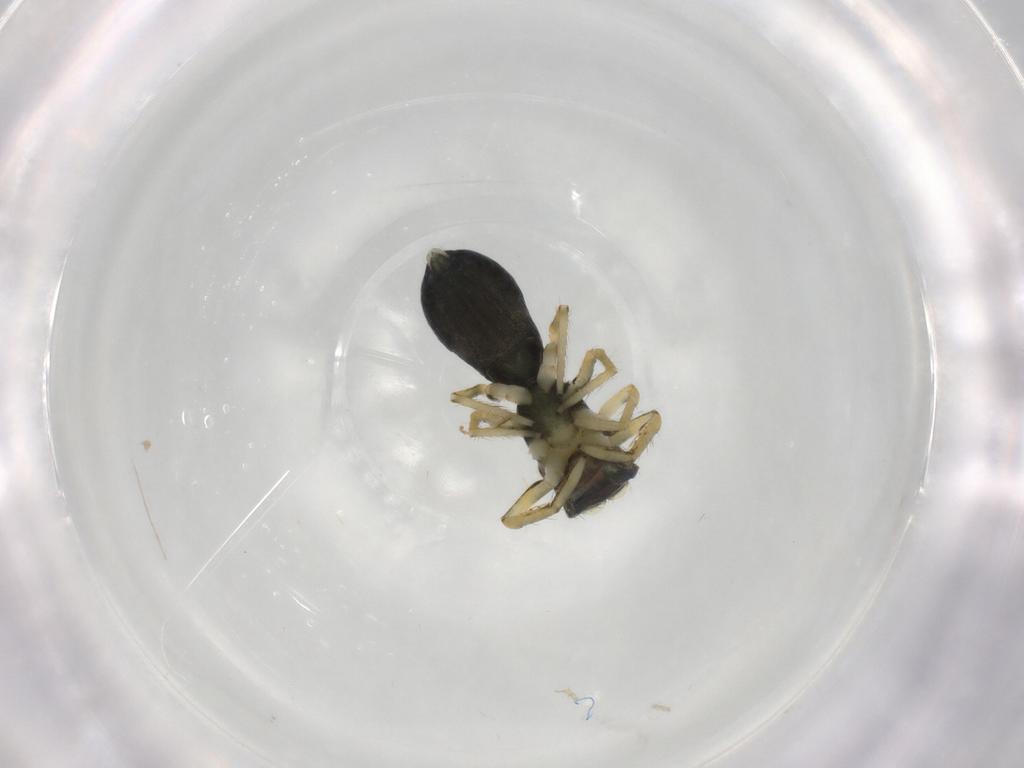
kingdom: Animalia
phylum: Arthropoda
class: Arachnida
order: Araneae
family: Salticidae
